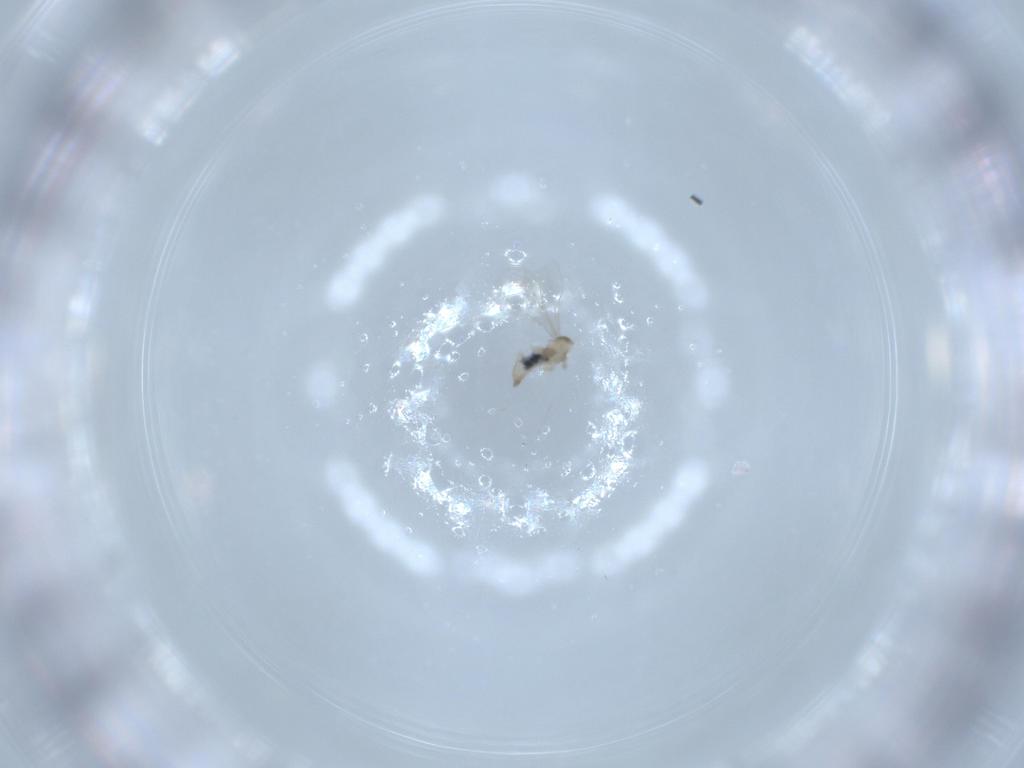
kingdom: Animalia
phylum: Arthropoda
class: Insecta
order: Diptera
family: Cecidomyiidae
